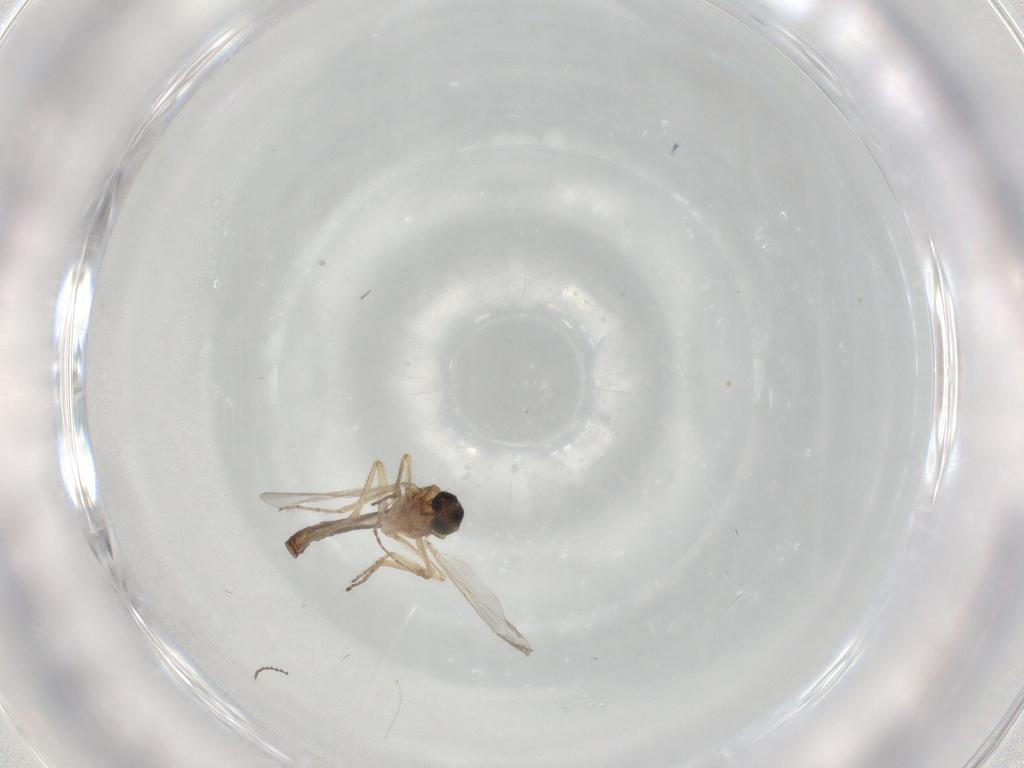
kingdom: Animalia
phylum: Arthropoda
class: Insecta
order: Diptera
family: Ceratopogonidae
